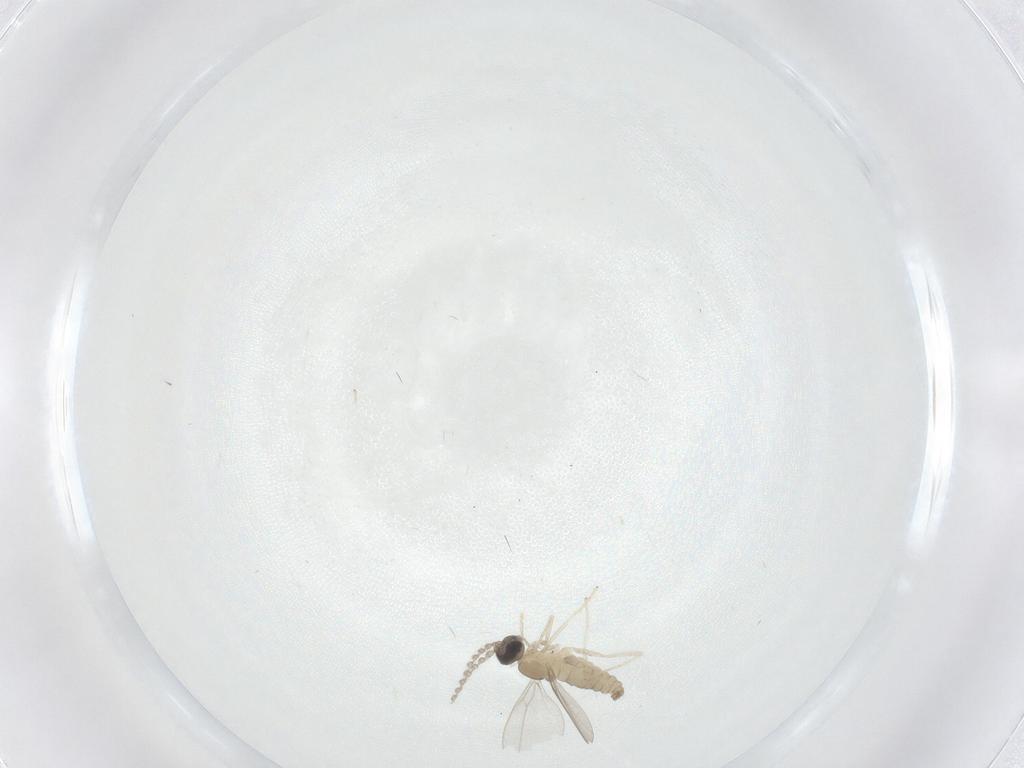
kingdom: Animalia
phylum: Arthropoda
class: Insecta
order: Diptera
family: Cecidomyiidae
